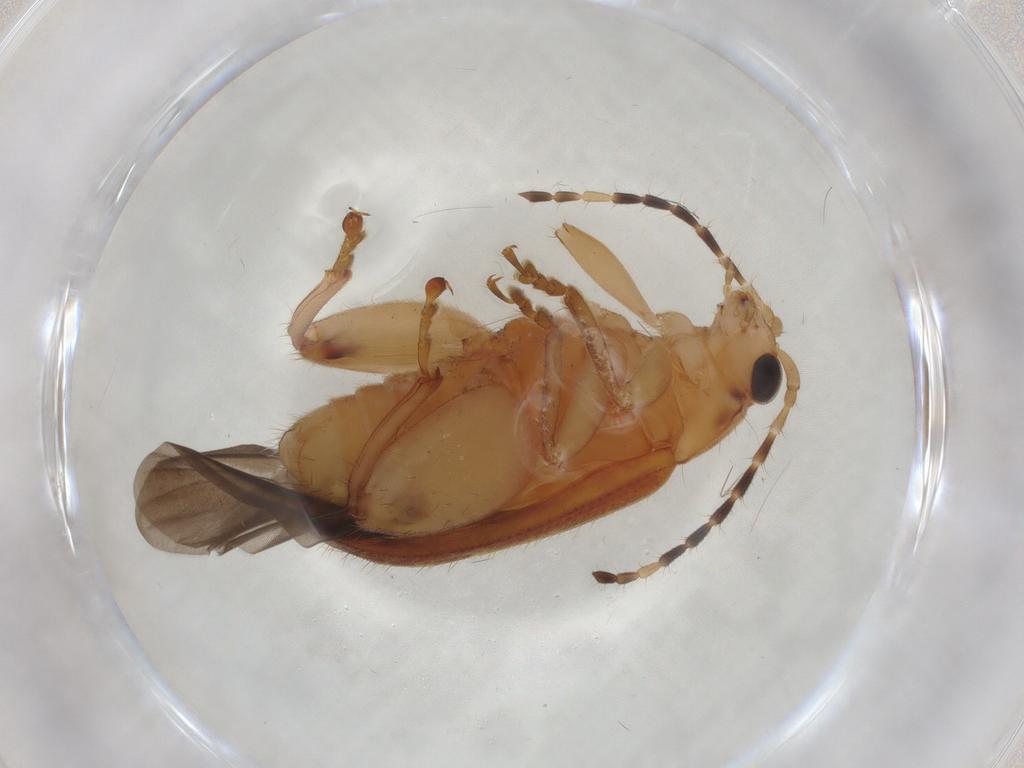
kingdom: Animalia
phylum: Arthropoda
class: Insecta
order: Coleoptera
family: Chrysomelidae
